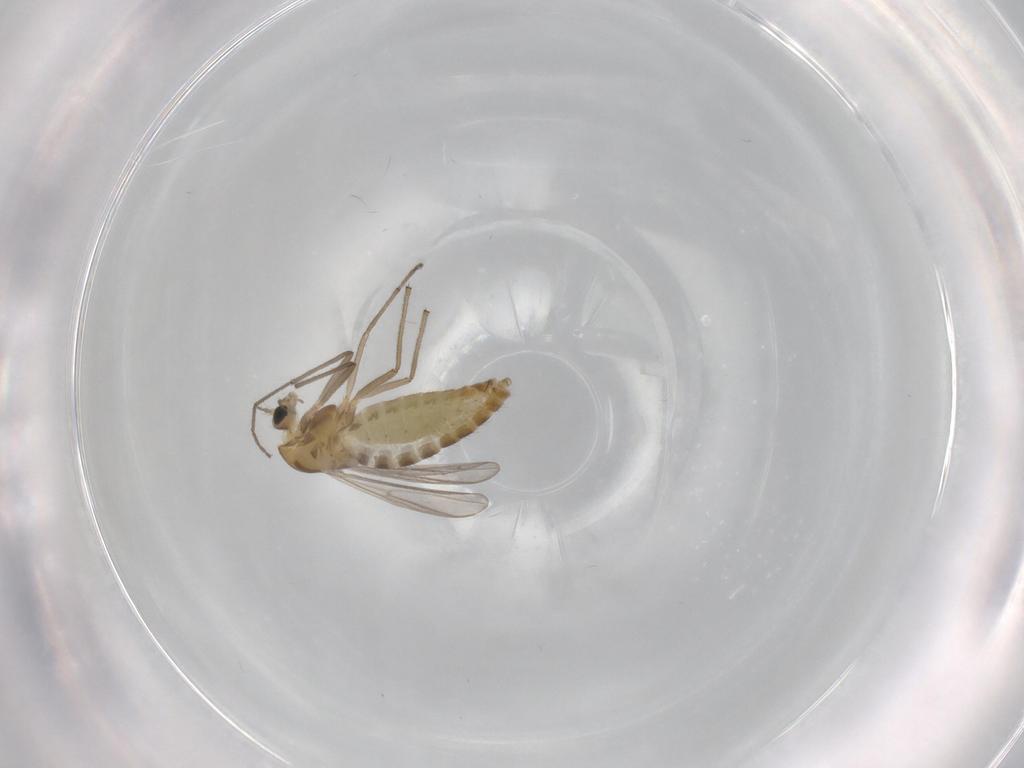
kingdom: Animalia
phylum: Arthropoda
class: Insecta
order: Diptera
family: Chironomidae
